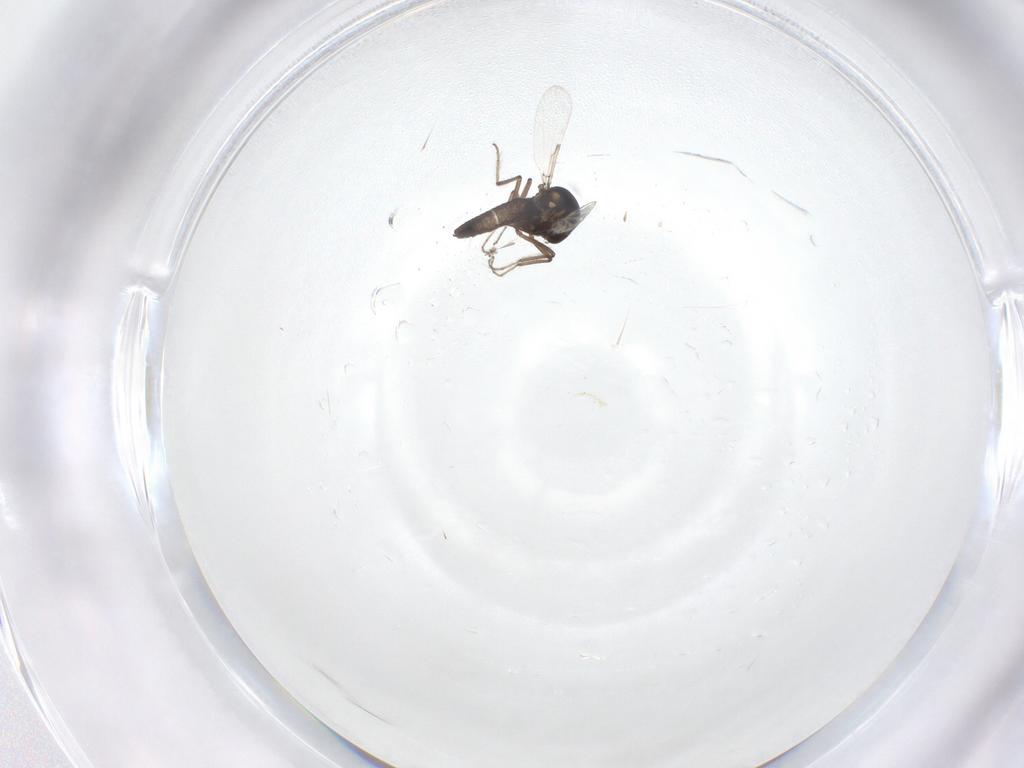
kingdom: Animalia
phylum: Arthropoda
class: Insecta
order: Diptera
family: Ceratopogonidae
